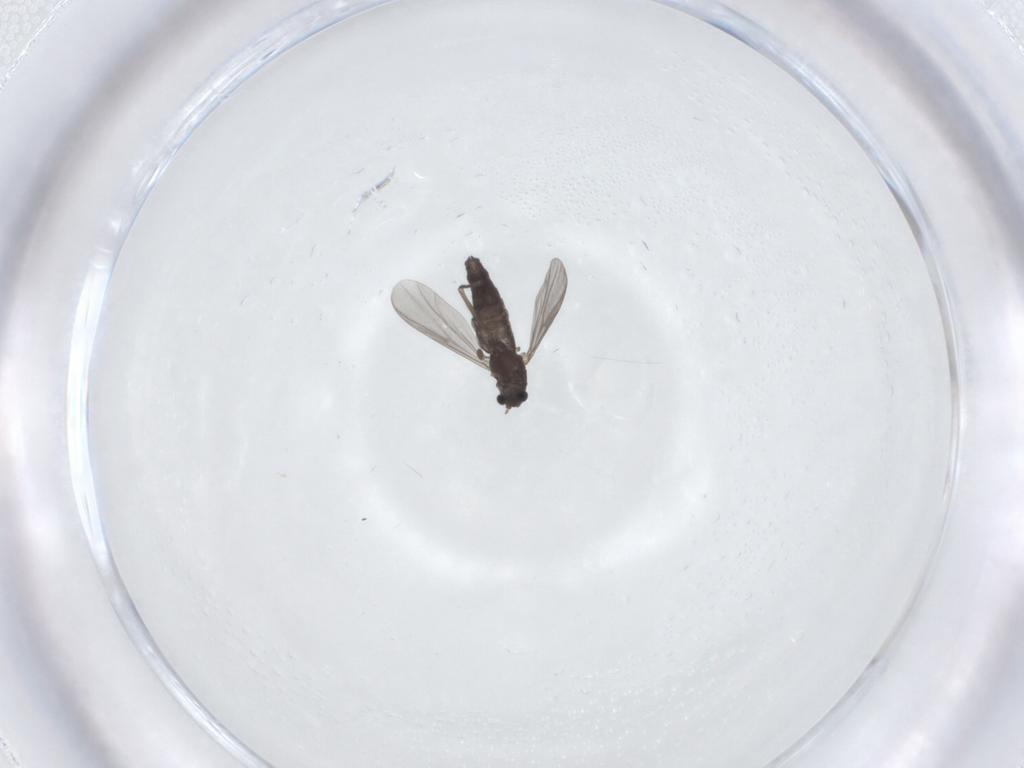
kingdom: Animalia
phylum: Arthropoda
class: Insecta
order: Diptera
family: Chironomidae
